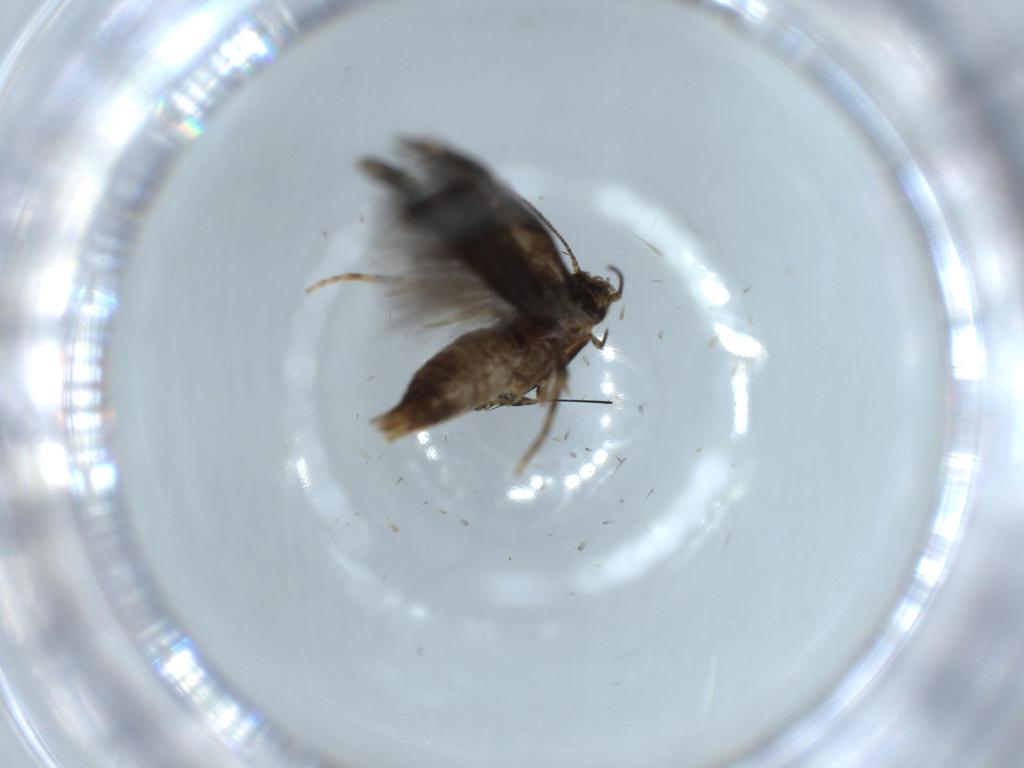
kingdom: Animalia
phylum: Arthropoda
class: Insecta
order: Lepidoptera
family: Elachistidae
